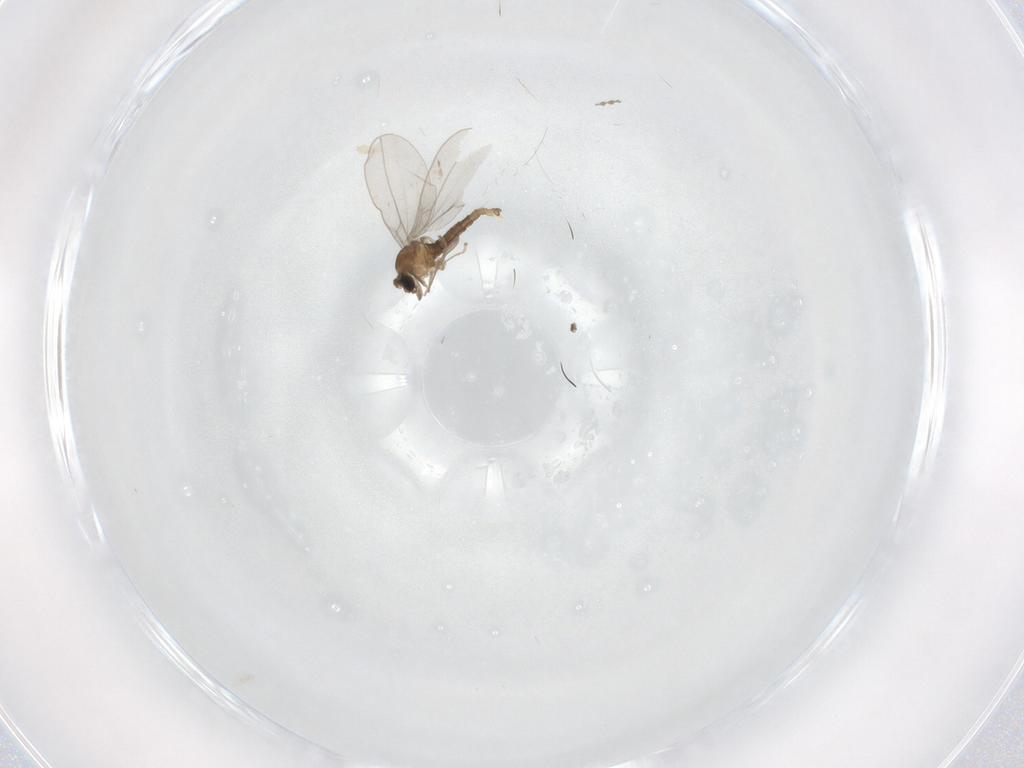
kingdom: Animalia
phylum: Arthropoda
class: Insecta
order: Diptera
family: Cecidomyiidae
